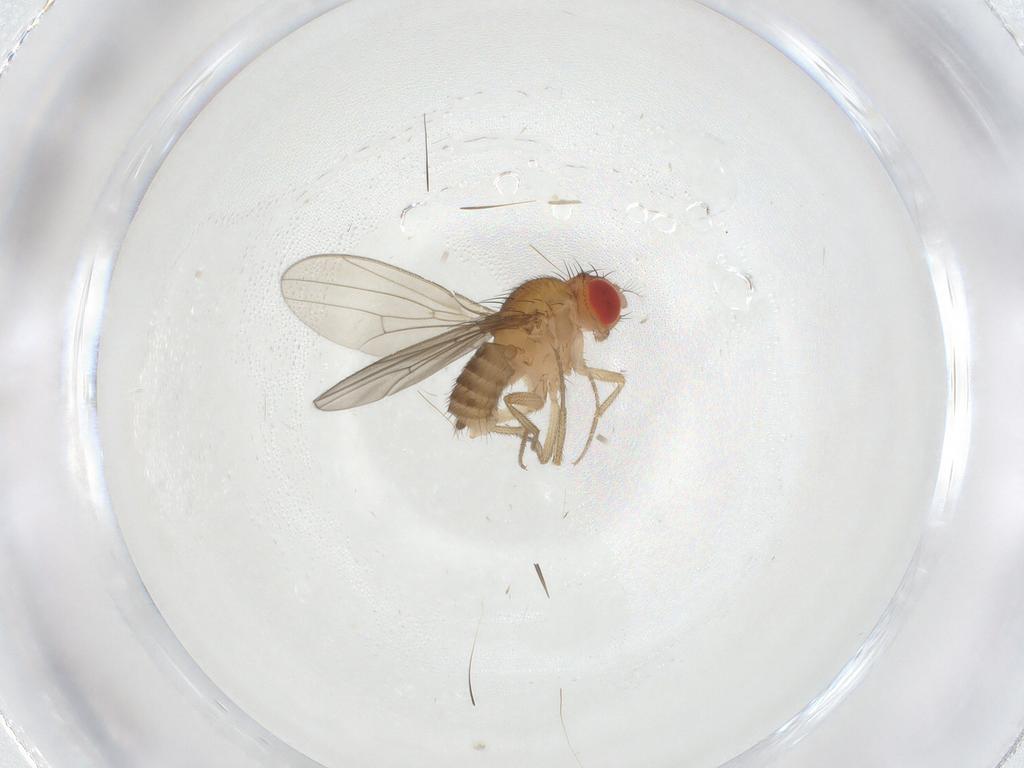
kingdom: Animalia
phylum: Arthropoda
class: Insecta
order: Diptera
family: Drosophilidae
